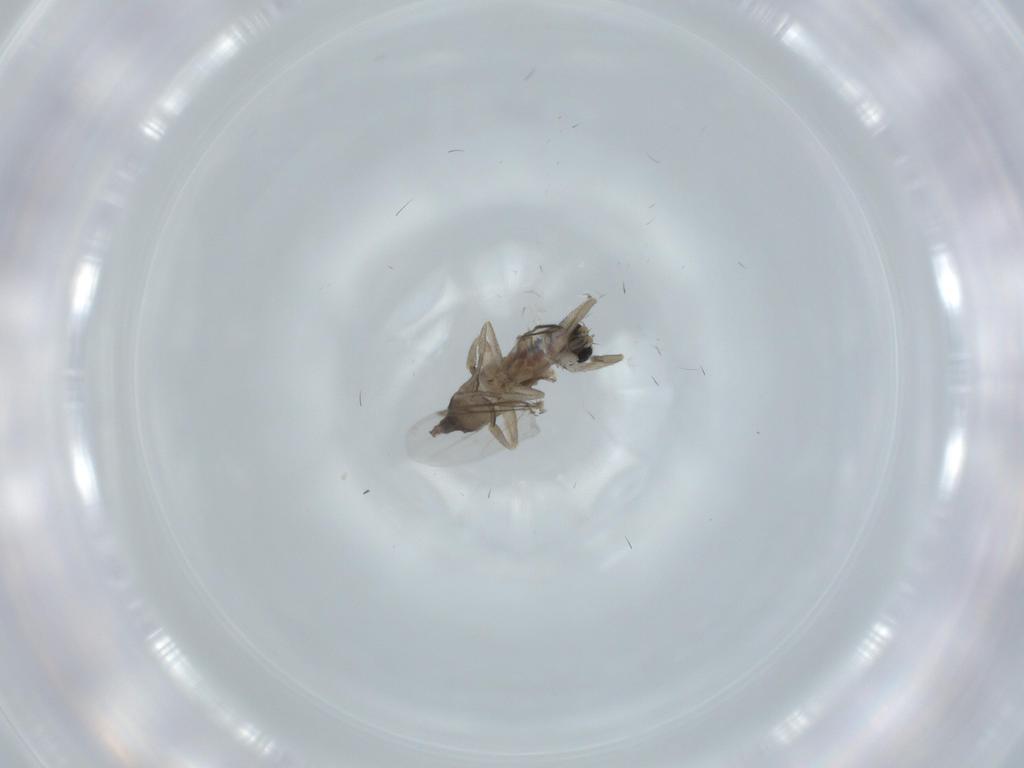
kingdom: Animalia
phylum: Arthropoda
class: Insecta
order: Diptera
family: Phoridae
